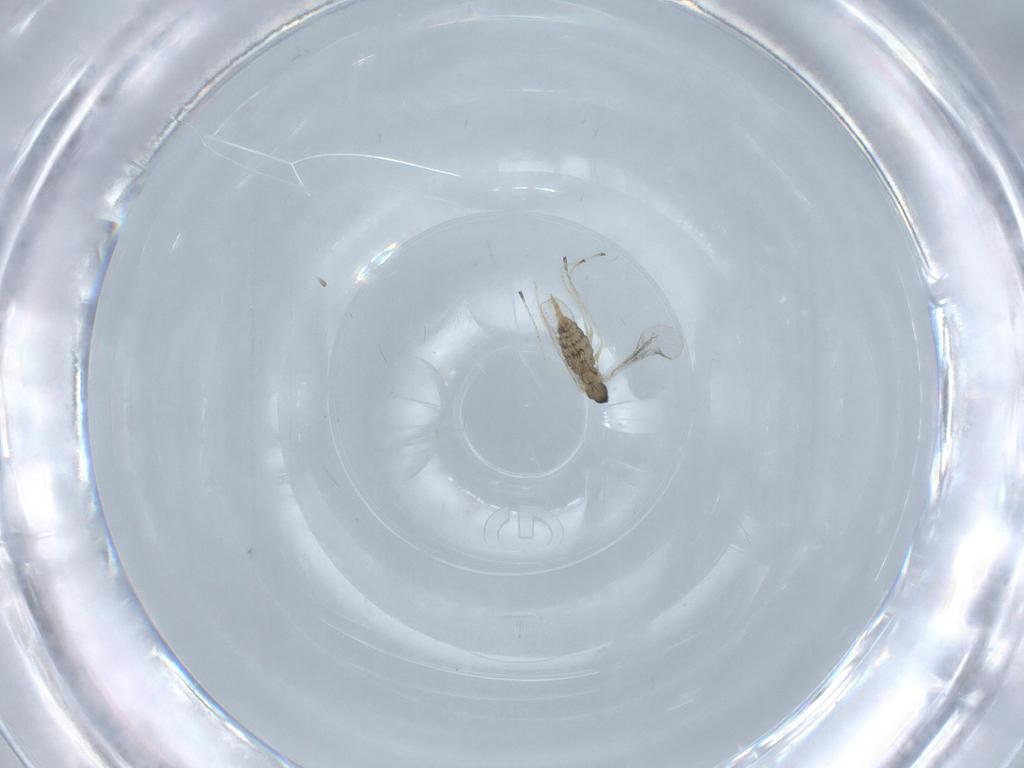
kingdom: Animalia
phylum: Arthropoda
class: Insecta
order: Diptera
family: Cecidomyiidae
